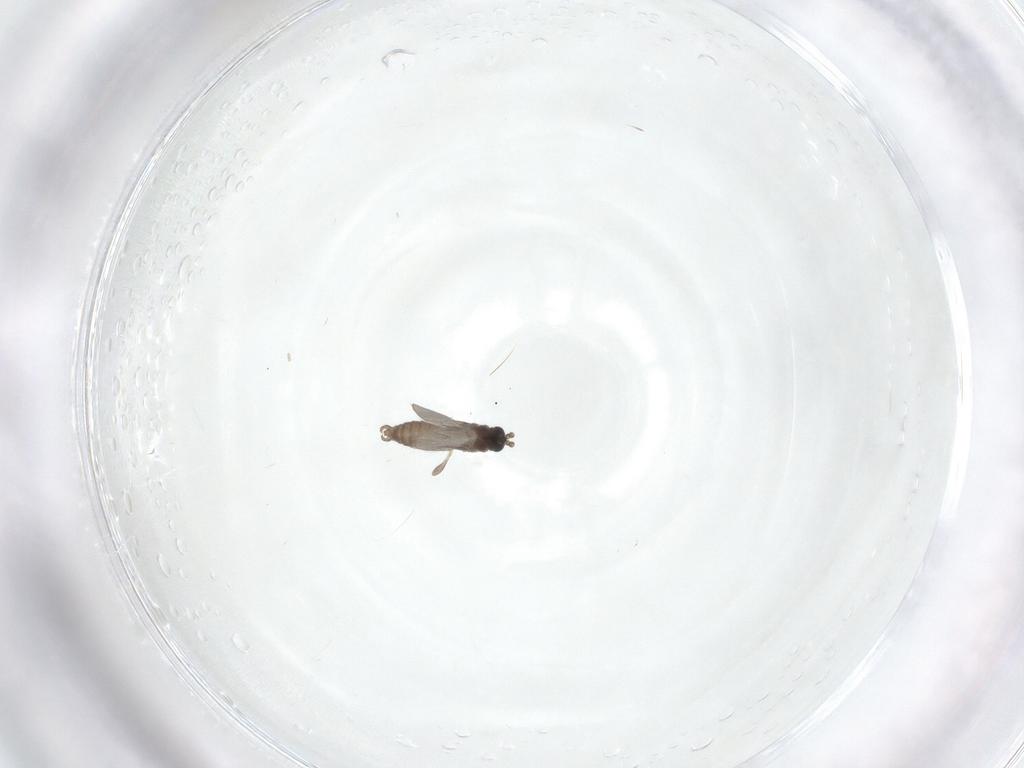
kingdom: Animalia
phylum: Arthropoda
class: Insecta
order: Diptera
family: Sciaridae
